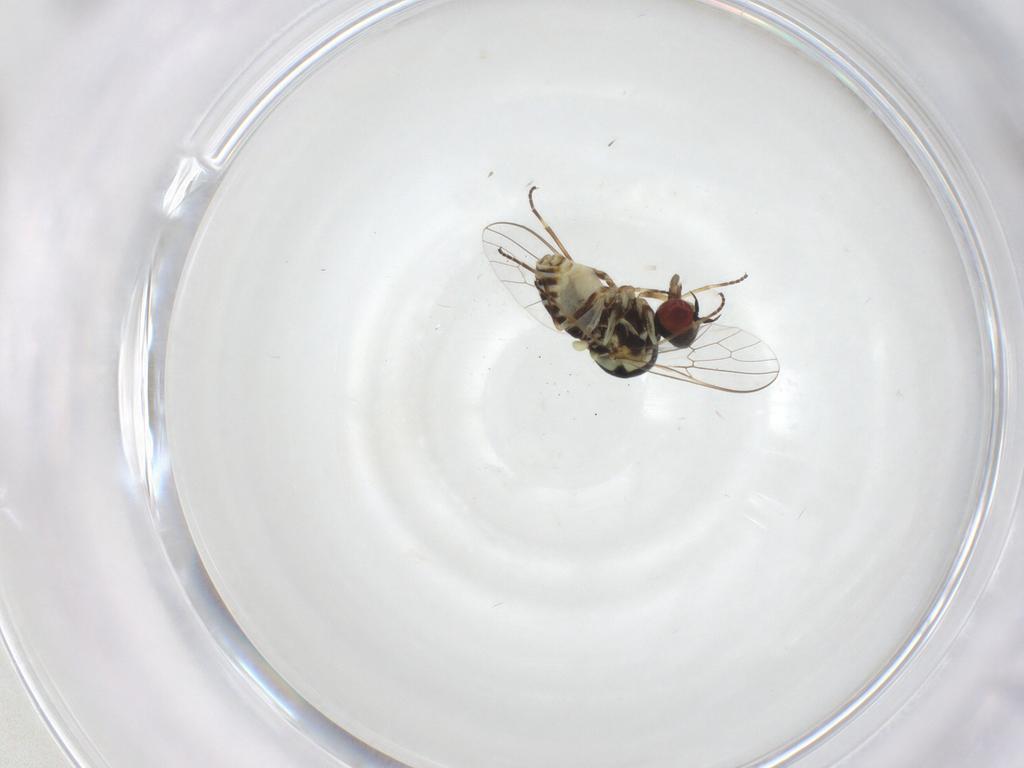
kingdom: Animalia
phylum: Arthropoda
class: Insecta
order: Diptera
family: Bombyliidae
